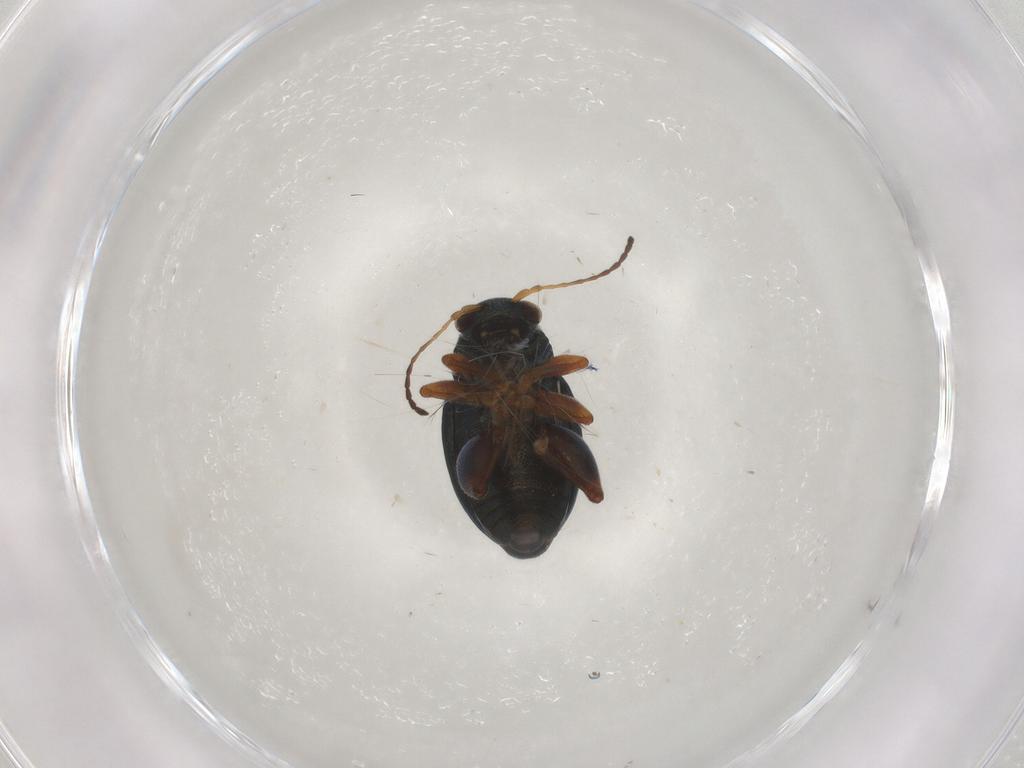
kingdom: Animalia
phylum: Arthropoda
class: Insecta
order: Coleoptera
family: Chrysomelidae
